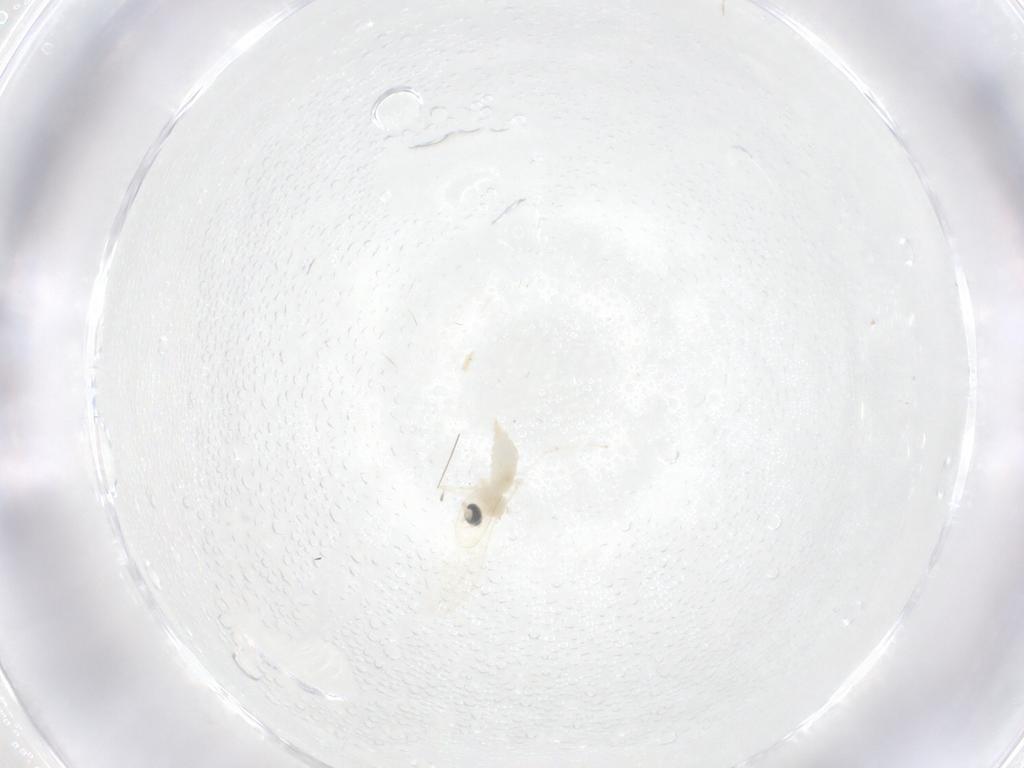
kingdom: Animalia
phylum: Arthropoda
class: Insecta
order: Diptera
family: Cecidomyiidae
